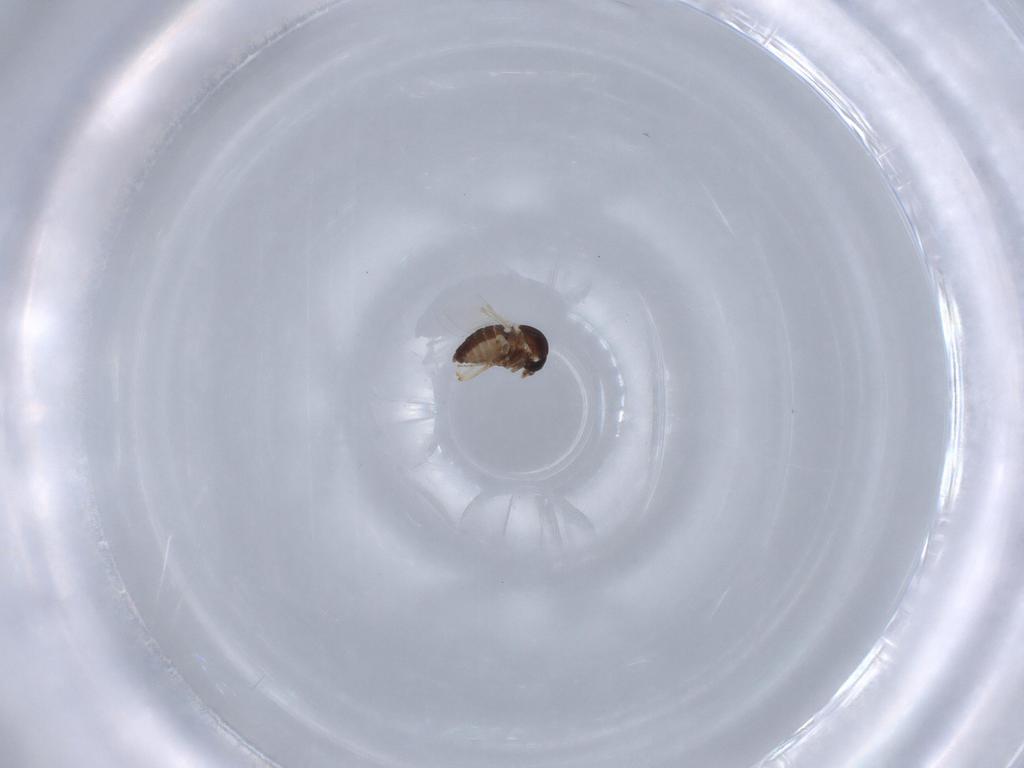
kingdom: Animalia
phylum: Arthropoda
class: Insecta
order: Diptera
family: Ephydridae
